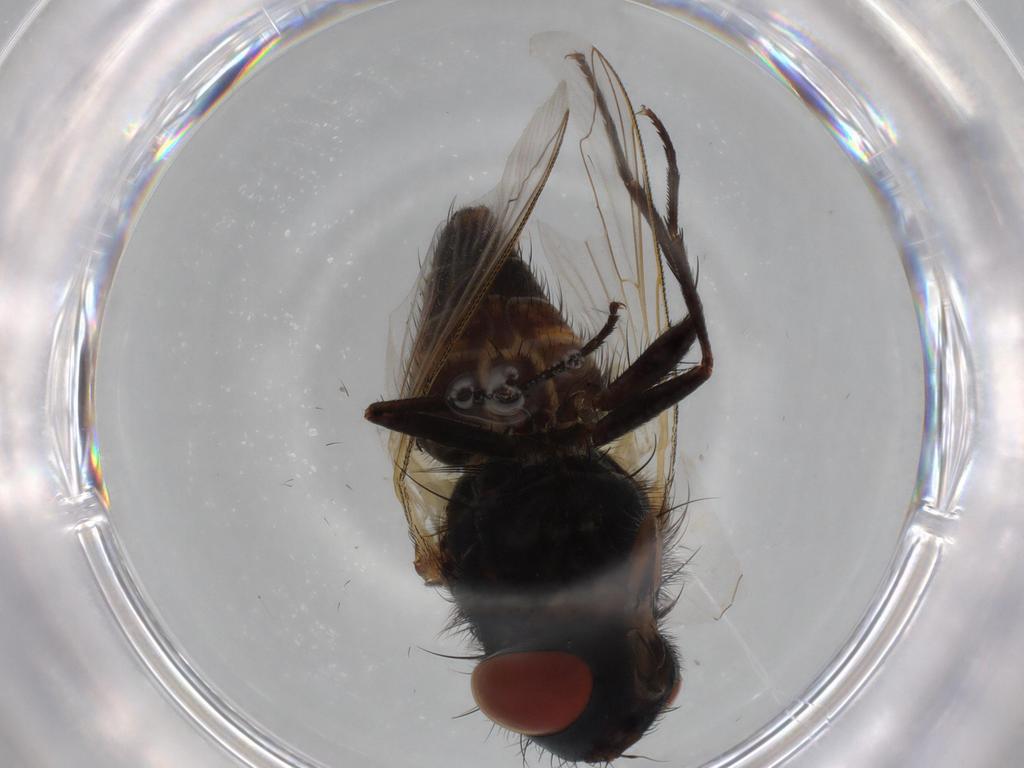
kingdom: Animalia
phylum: Arthropoda
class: Insecta
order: Diptera
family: Sarcophagidae
